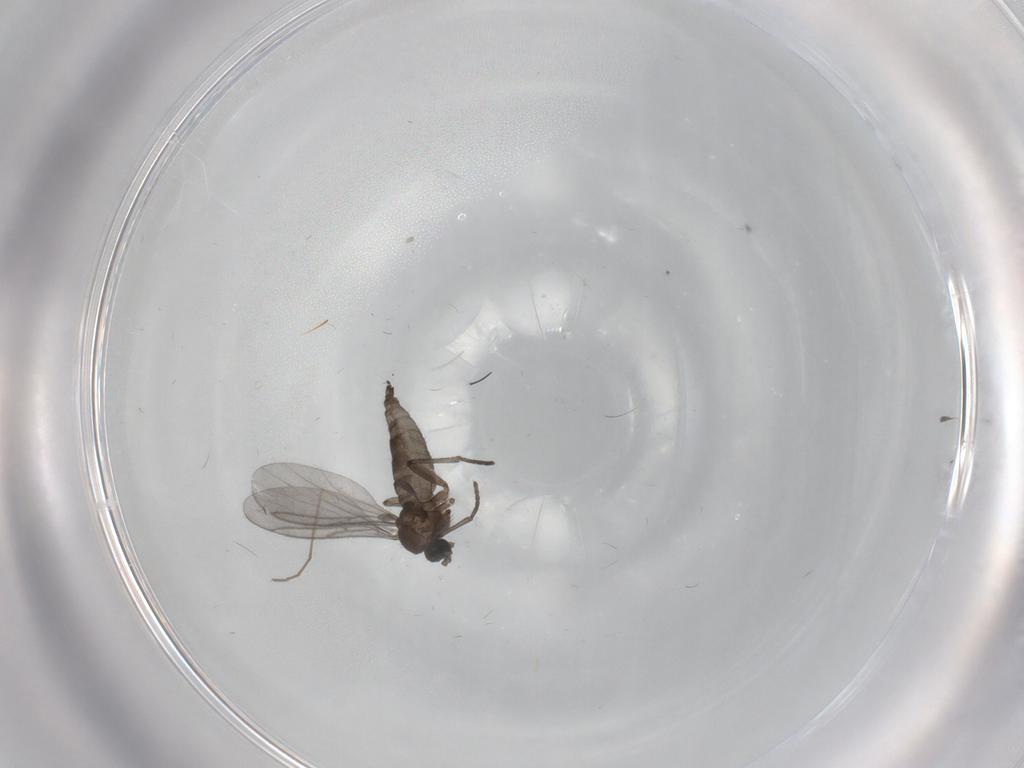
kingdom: Animalia
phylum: Arthropoda
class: Insecta
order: Diptera
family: Sciaridae
